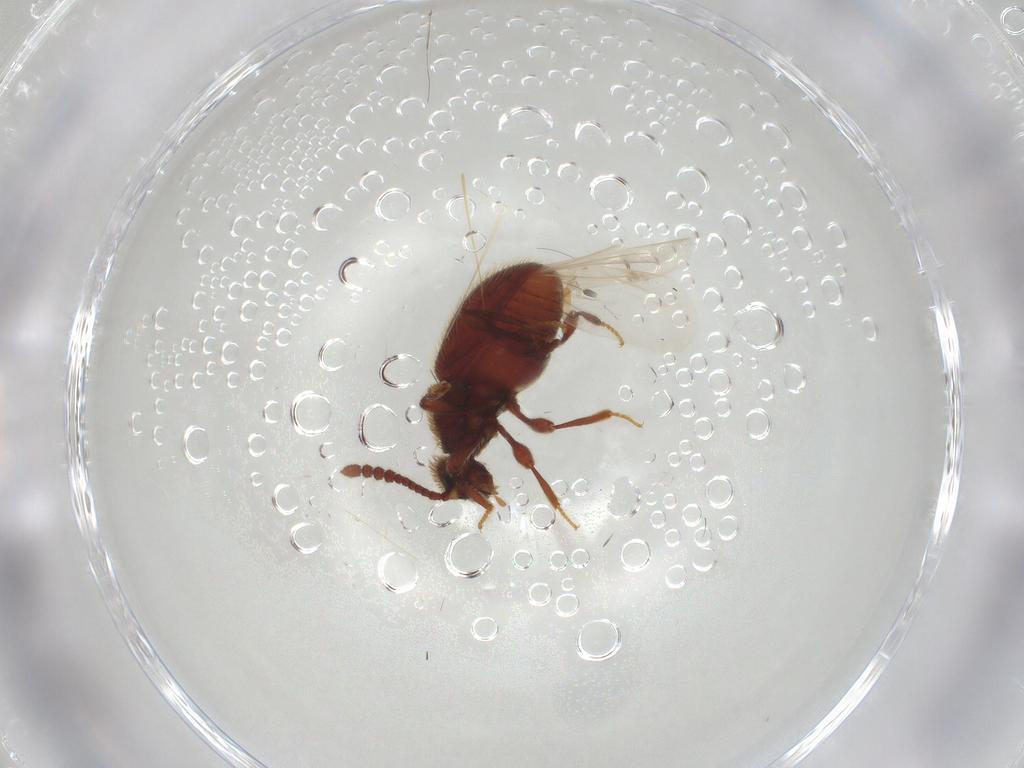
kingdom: Animalia
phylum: Arthropoda
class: Insecta
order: Coleoptera
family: Staphylinidae
